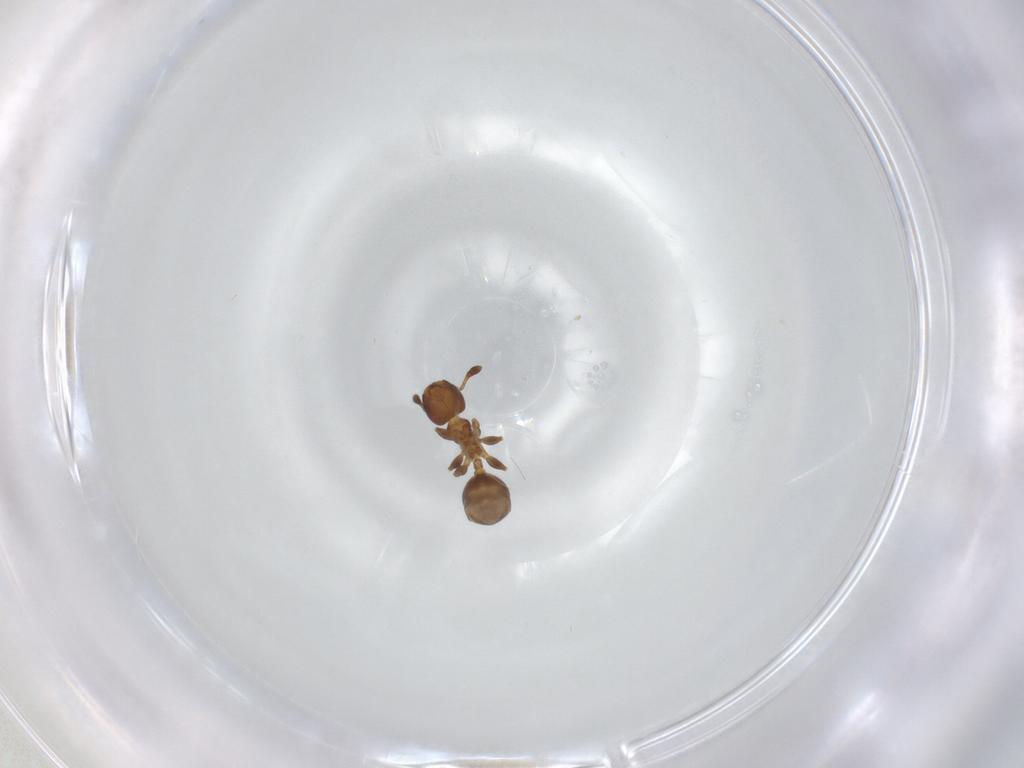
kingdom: Animalia
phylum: Arthropoda
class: Insecta
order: Hymenoptera
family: Formicidae
